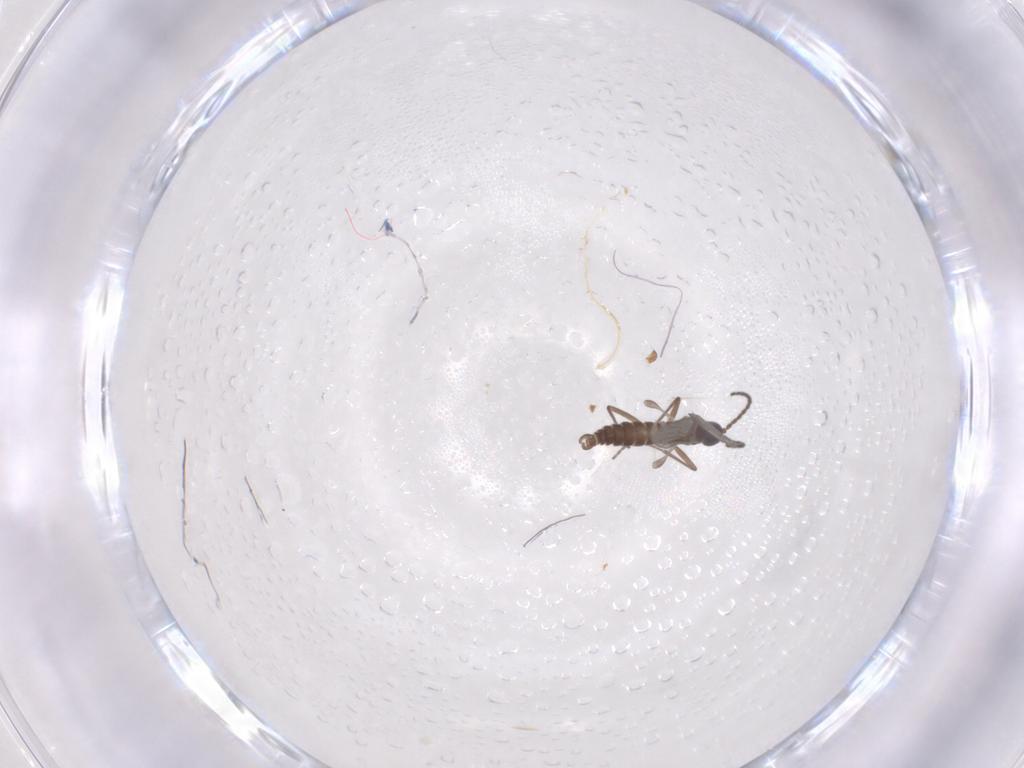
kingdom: Animalia
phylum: Arthropoda
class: Insecta
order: Diptera
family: Sciaridae
